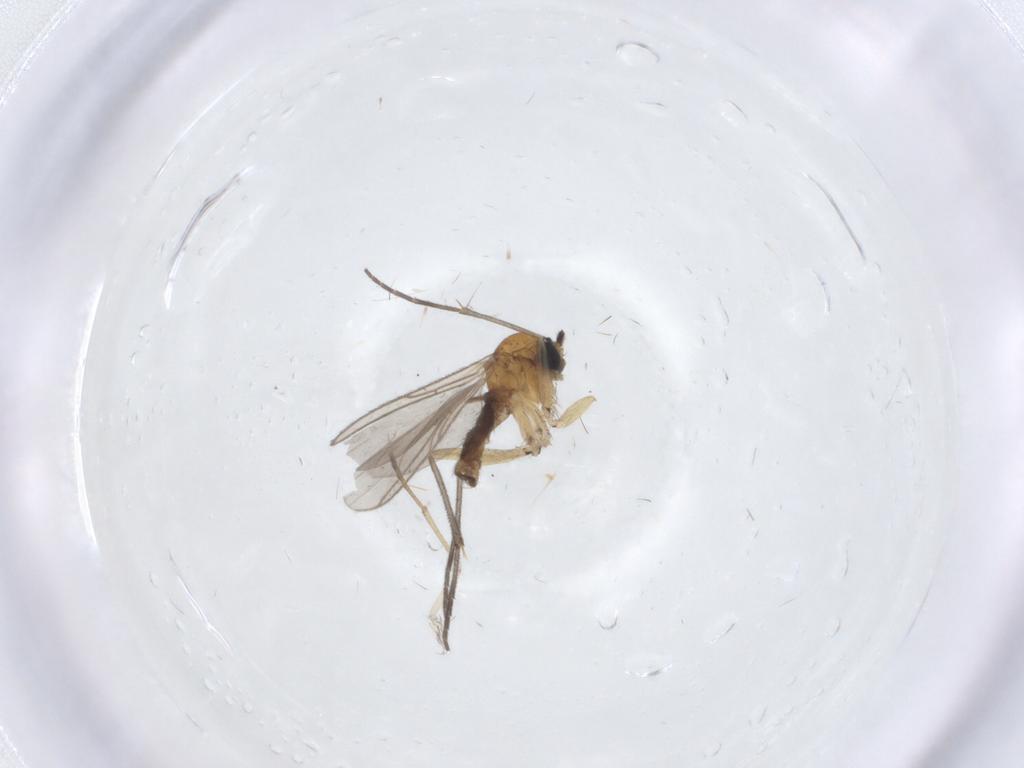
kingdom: Animalia
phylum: Arthropoda
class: Insecta
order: Diptera
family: Sciaridae
